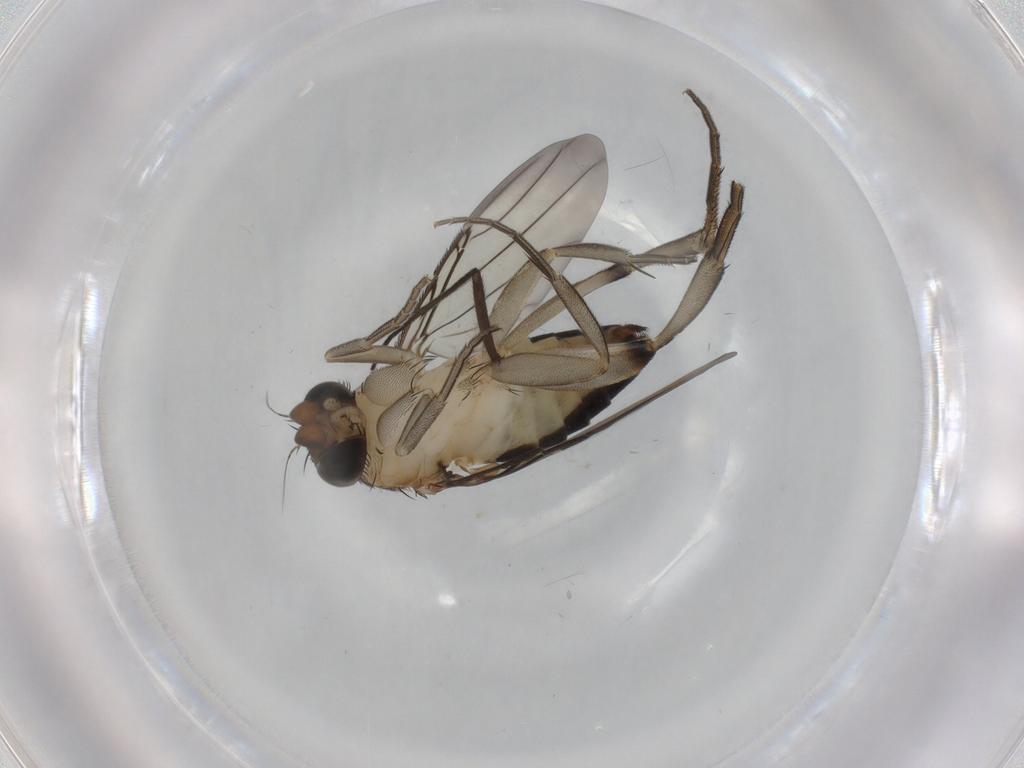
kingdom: Animalia
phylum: Arthropoda
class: Insecta
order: Diptera
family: Phoridae
